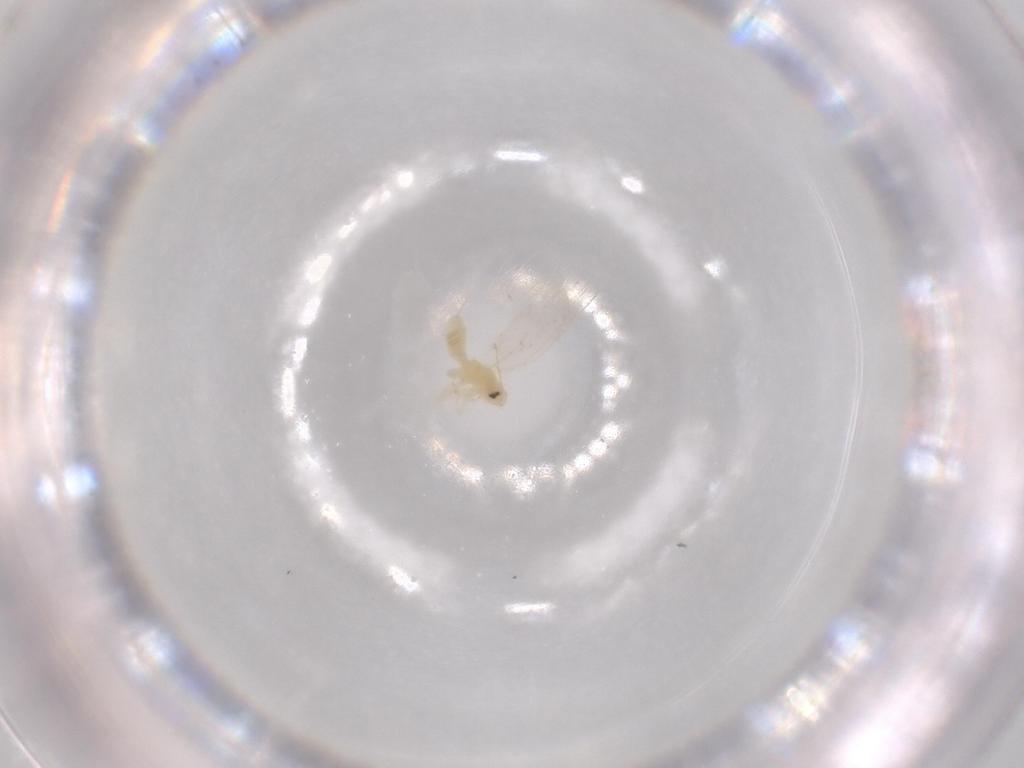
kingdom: Animalia
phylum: Arthropoda
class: Insecta
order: Hemiptera
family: Aleyrodidae
